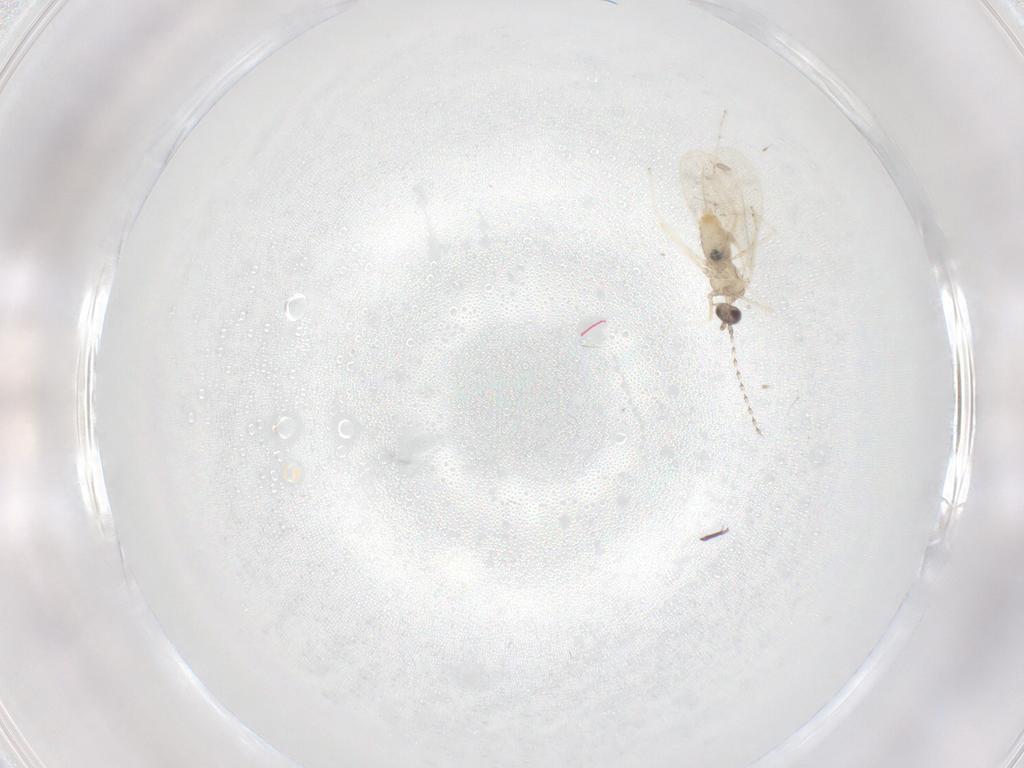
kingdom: Animalia
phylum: Arthropoda
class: Insecta
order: Diptera
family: Cecidomyiidae
